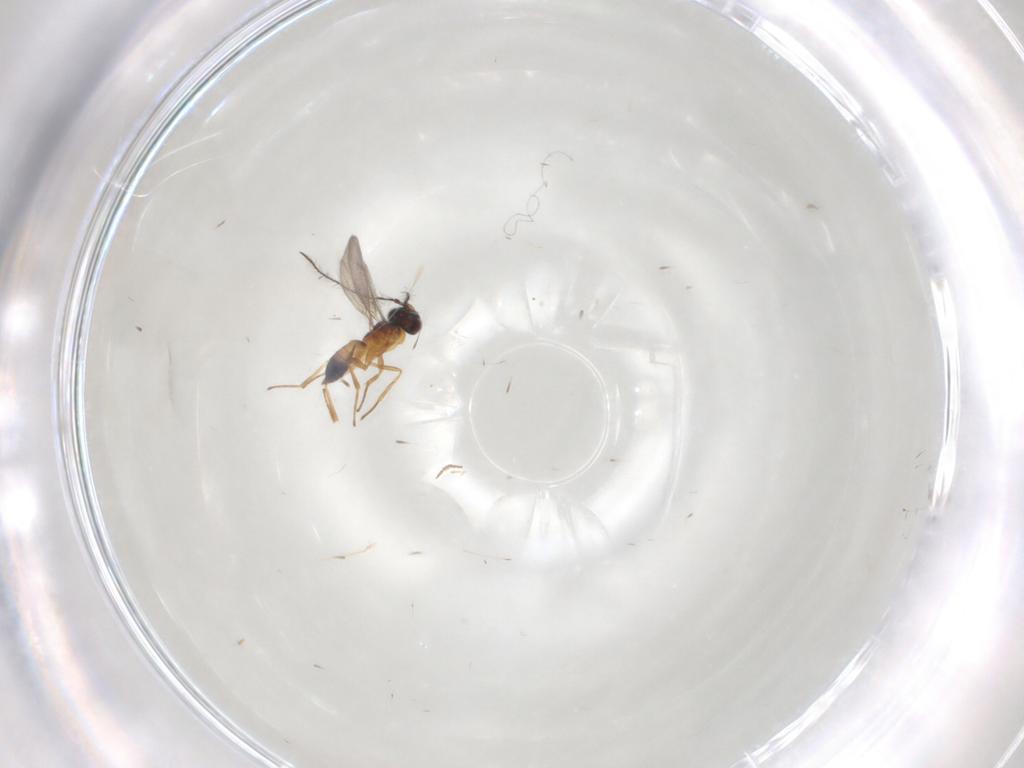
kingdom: Animalia
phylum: Arthropoda
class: Insecta
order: Hymenoptera
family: Eupelmidae
